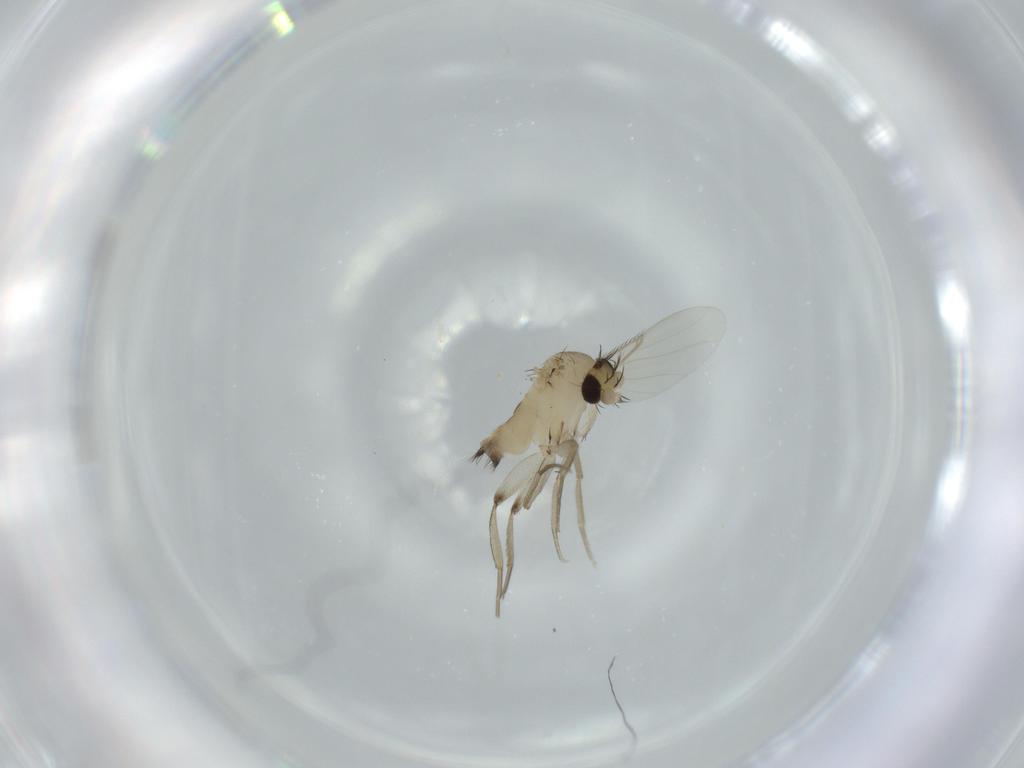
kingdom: Animalia
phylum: Arthropoda
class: Insecta
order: Diptera
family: Phoridae
